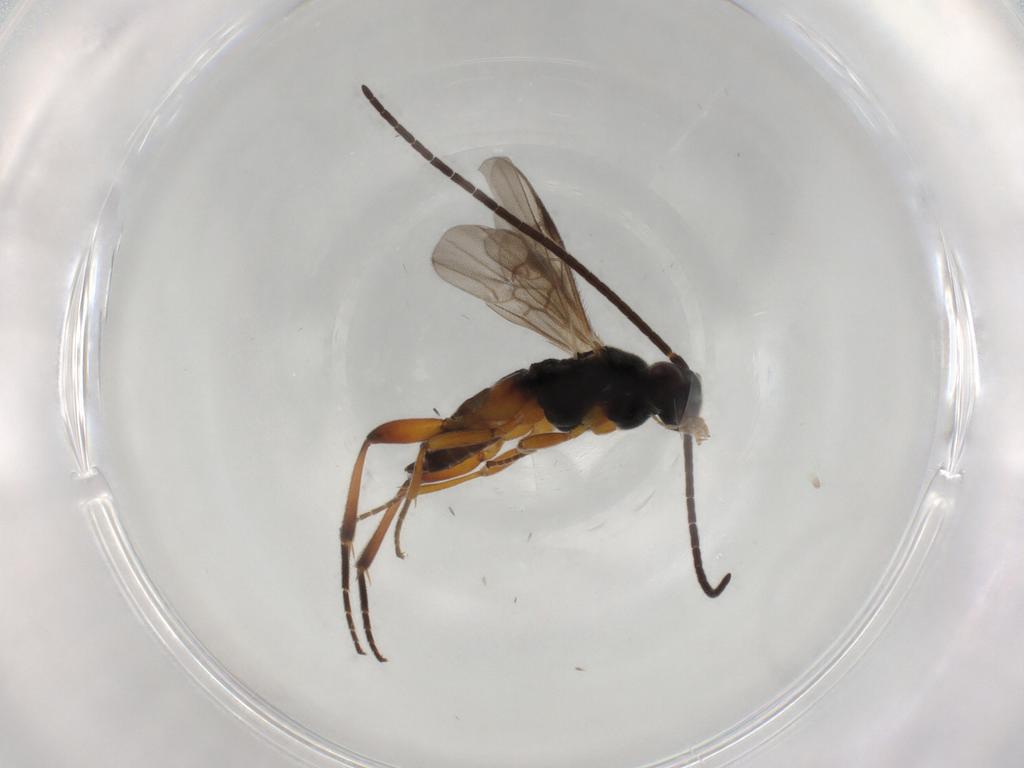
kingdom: Animalia
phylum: Arthropoda
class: Insecta
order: Hymenoptera
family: Braconidae
